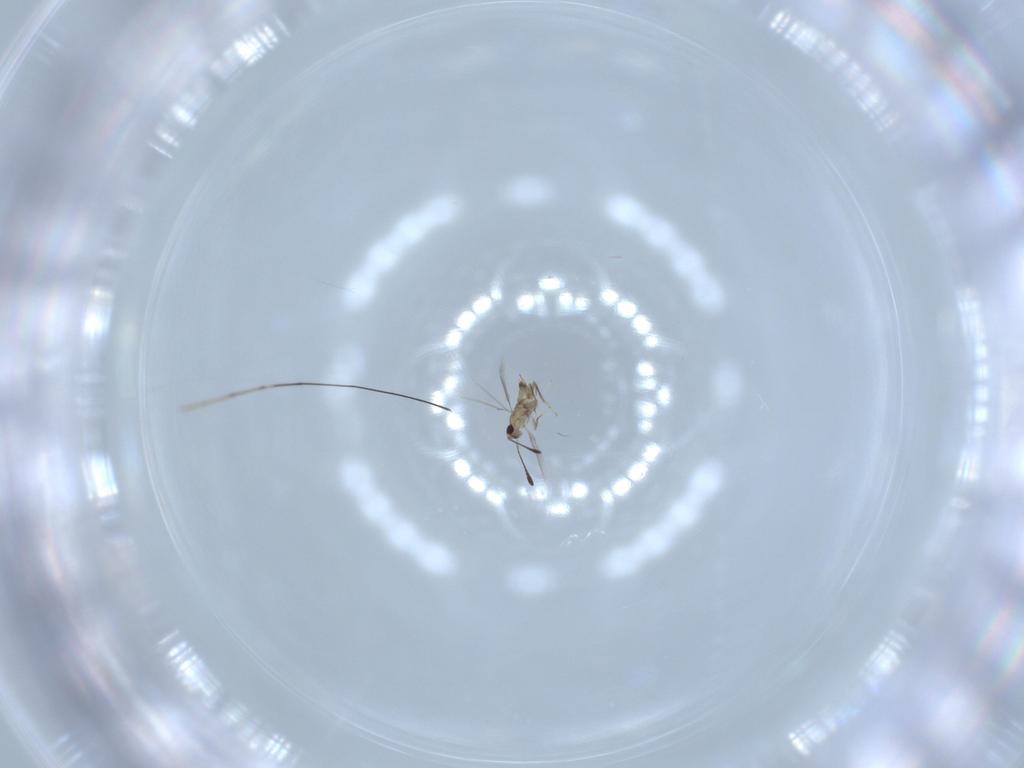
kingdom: Animalia
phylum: Arthropoda
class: Insecta
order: Hymenoptera
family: Mymaridae
